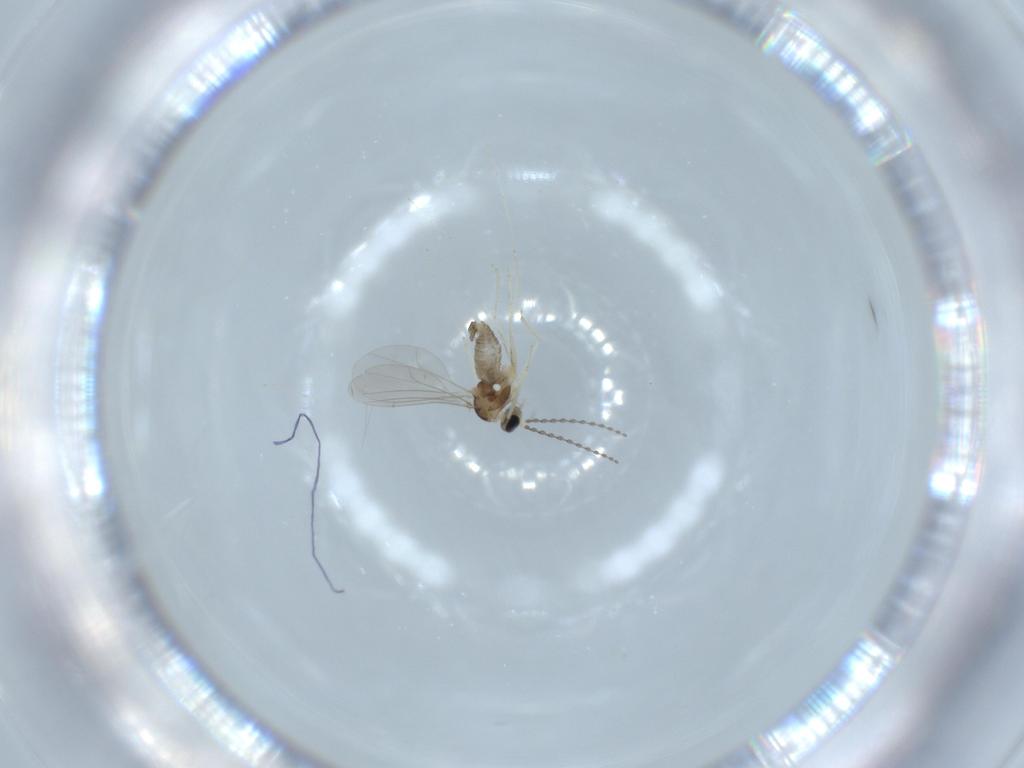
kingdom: Animalia
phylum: Arthropoda
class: Insecta
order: Diptera
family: Cecidomyiidae
